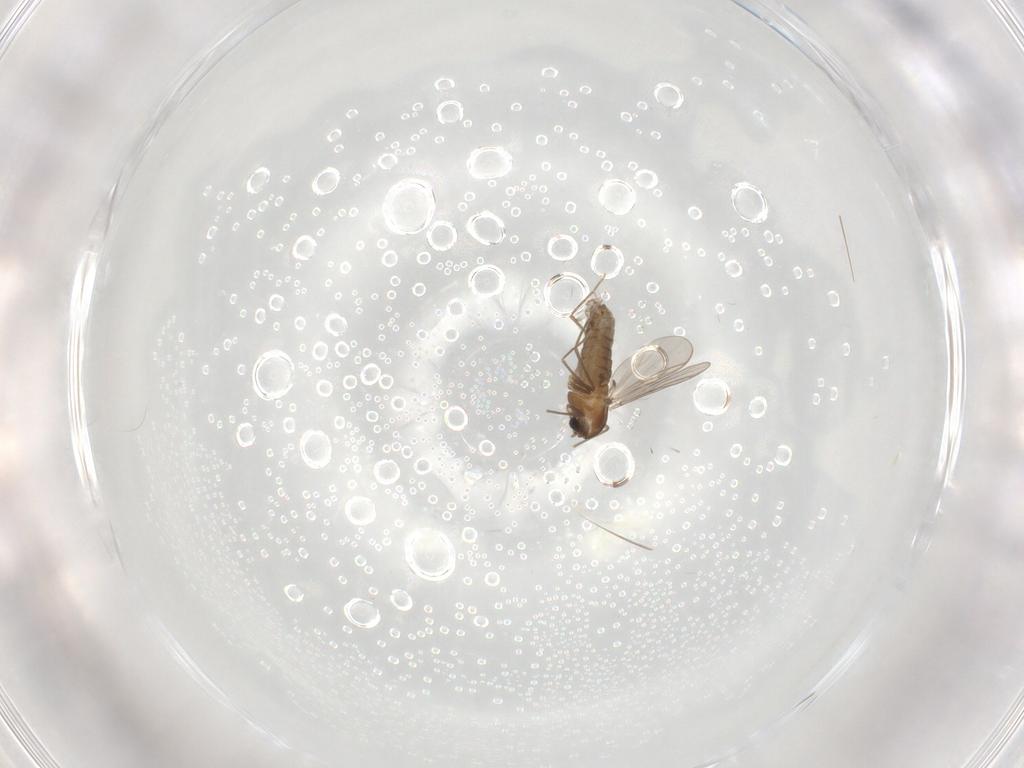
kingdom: Animalia
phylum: Arthropoda
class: Insecta
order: Diptera
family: Chironomidae
